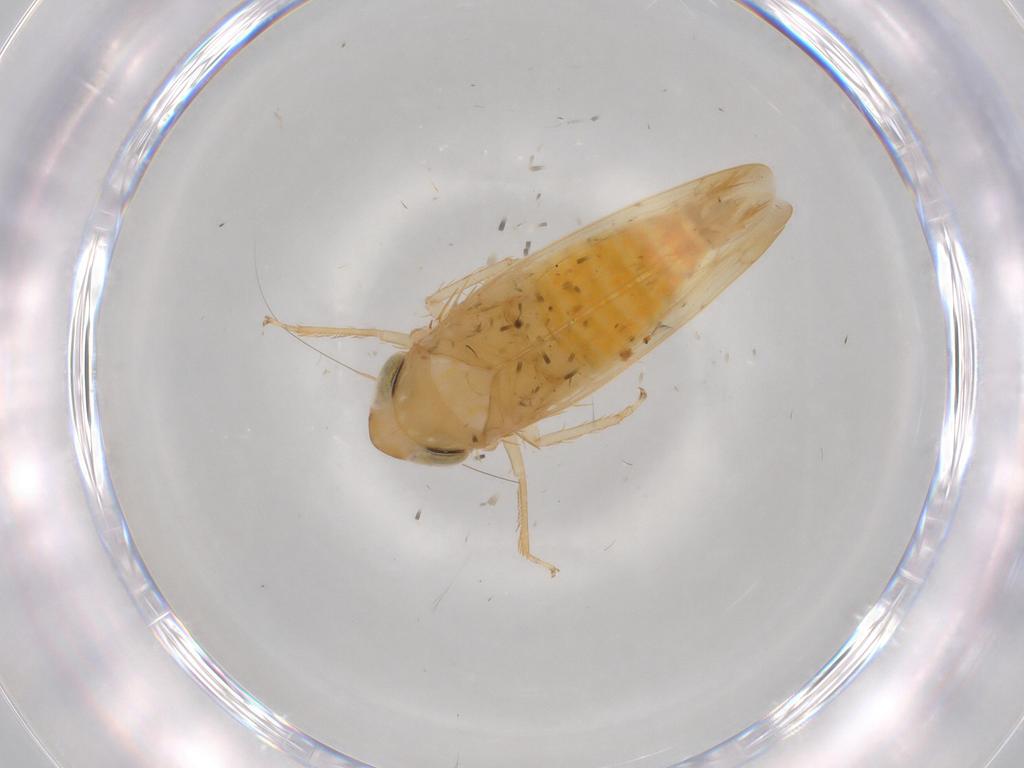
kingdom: Animalia
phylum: Arthropoda
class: Insecta
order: Hemiptera
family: Cicadellidae
